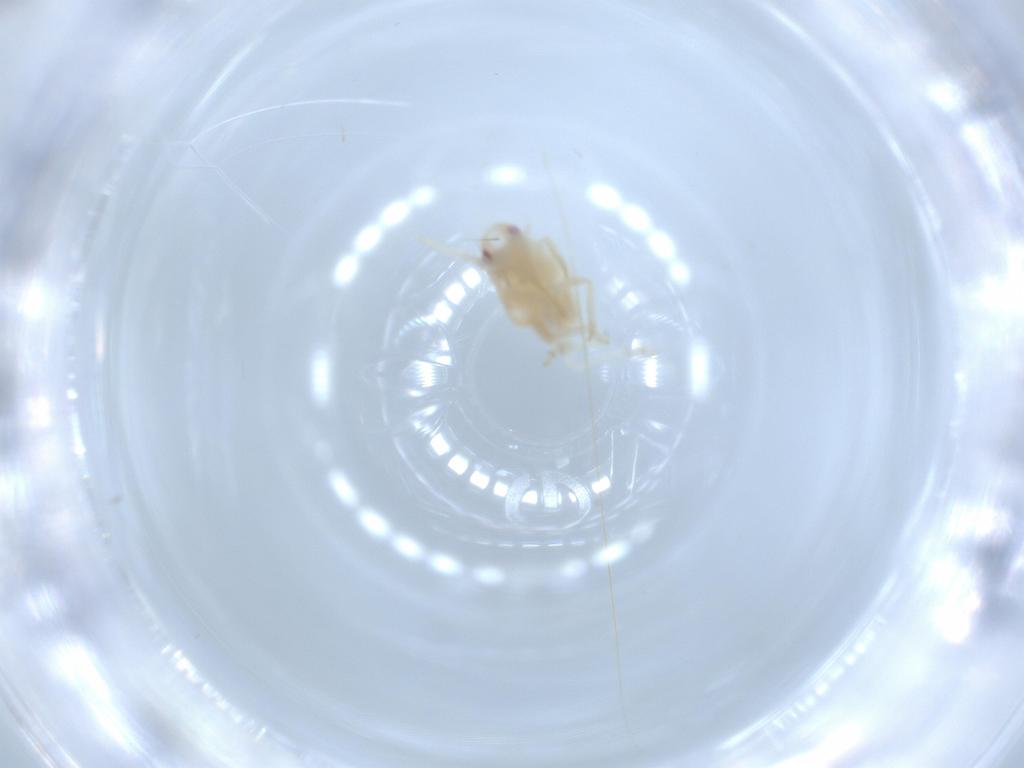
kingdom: Animalia
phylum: Arthropoda
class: Insecta
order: Hemiptera
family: Flatidae
